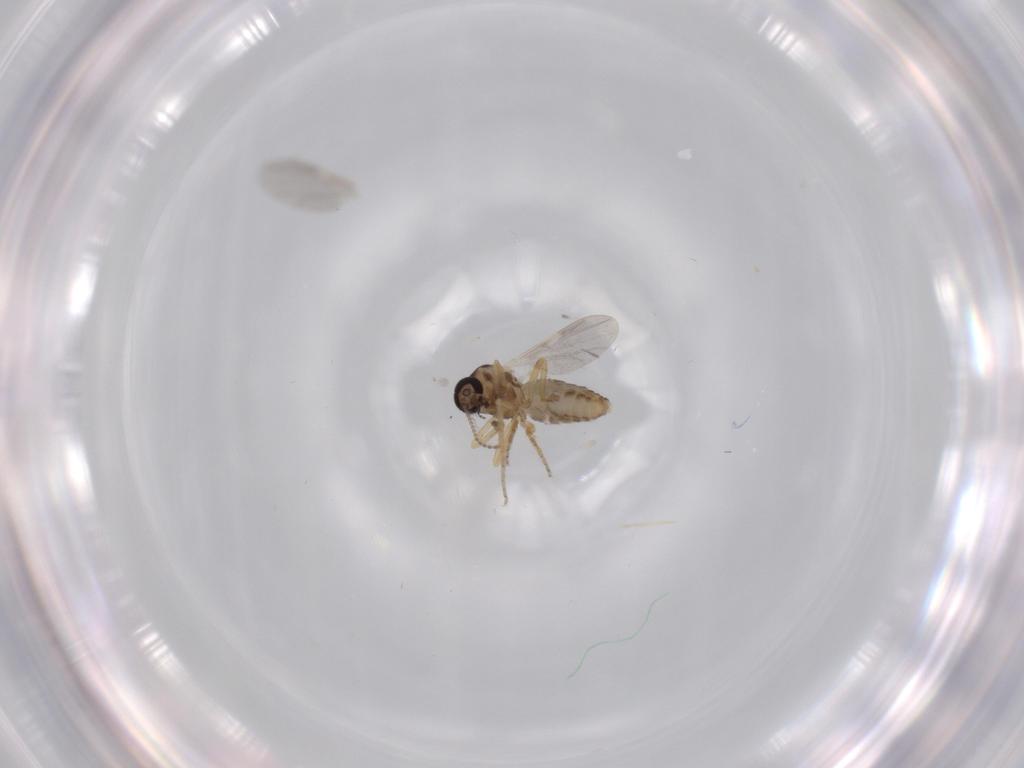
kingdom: Animalia
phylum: Arthropoda
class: Insecta
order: Diptera
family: Ceratopogonidae
